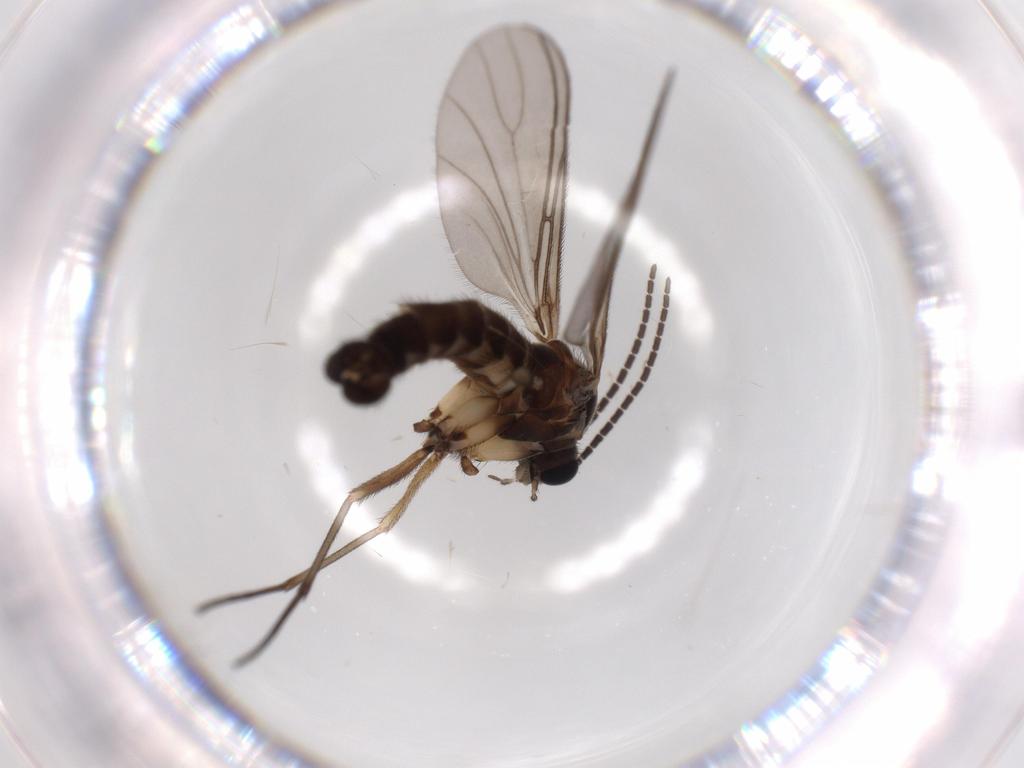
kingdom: Animalia
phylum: Arthropoda
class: Insecta
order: Diptera
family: Sciaridae
